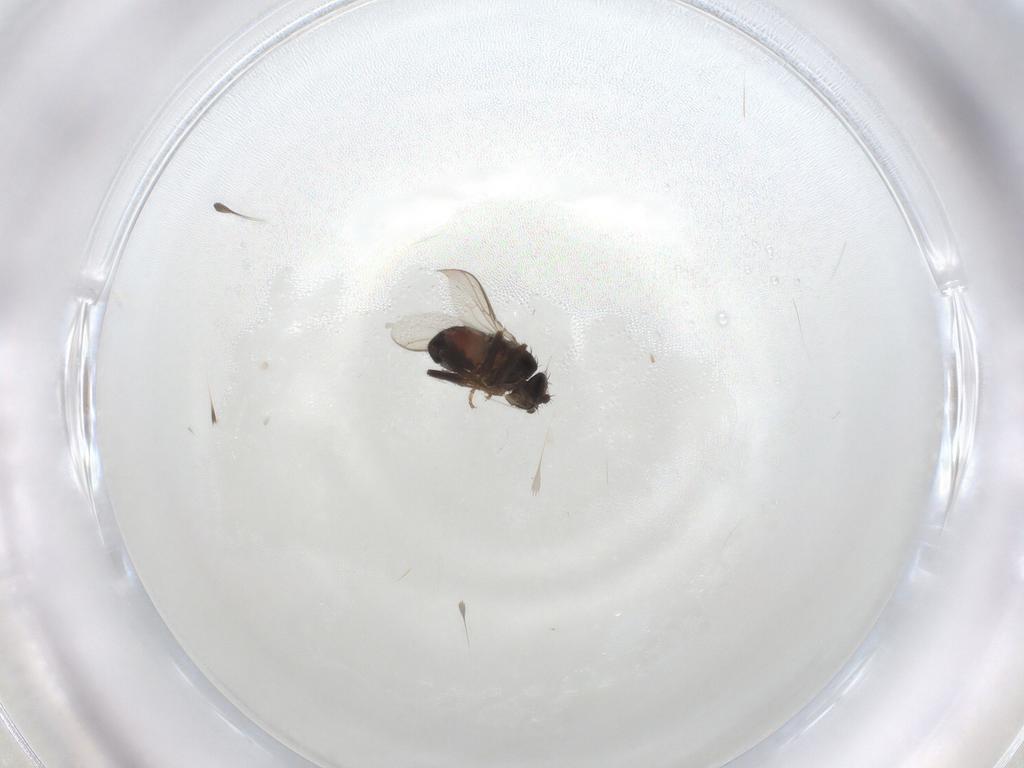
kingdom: Animalia
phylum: Arthropoda
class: Insecta
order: Diptera
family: Sphaeroceridae
